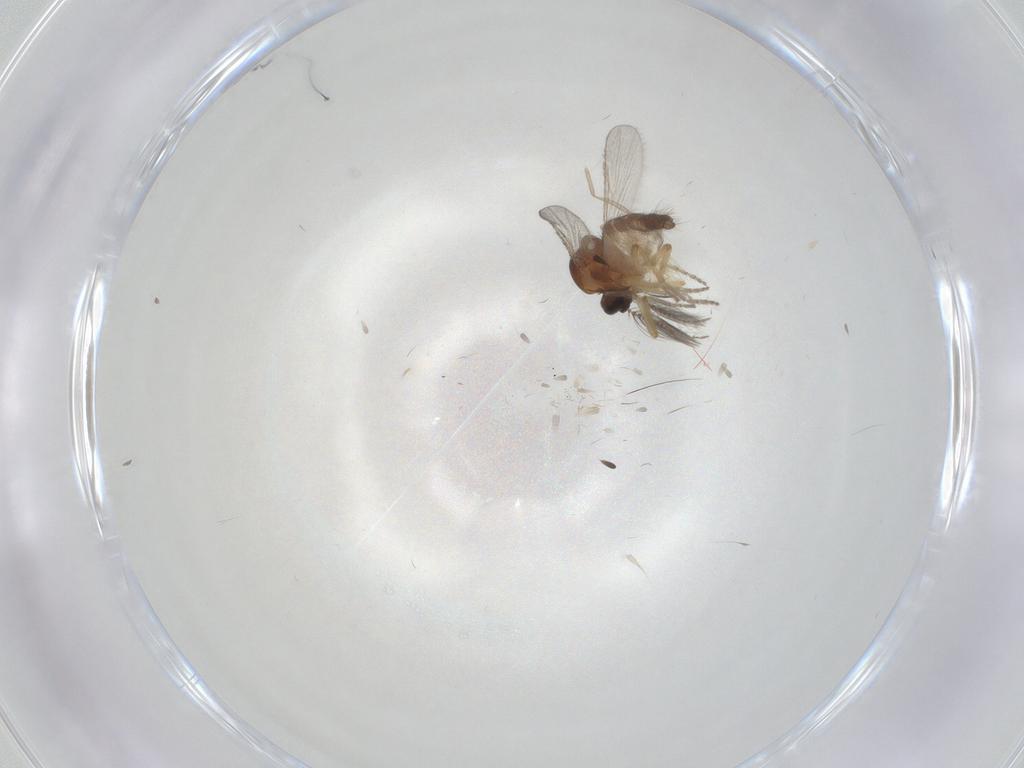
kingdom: Animalia
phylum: Arthropoda
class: Insecta
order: Diptera
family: Ceratopogonidae
